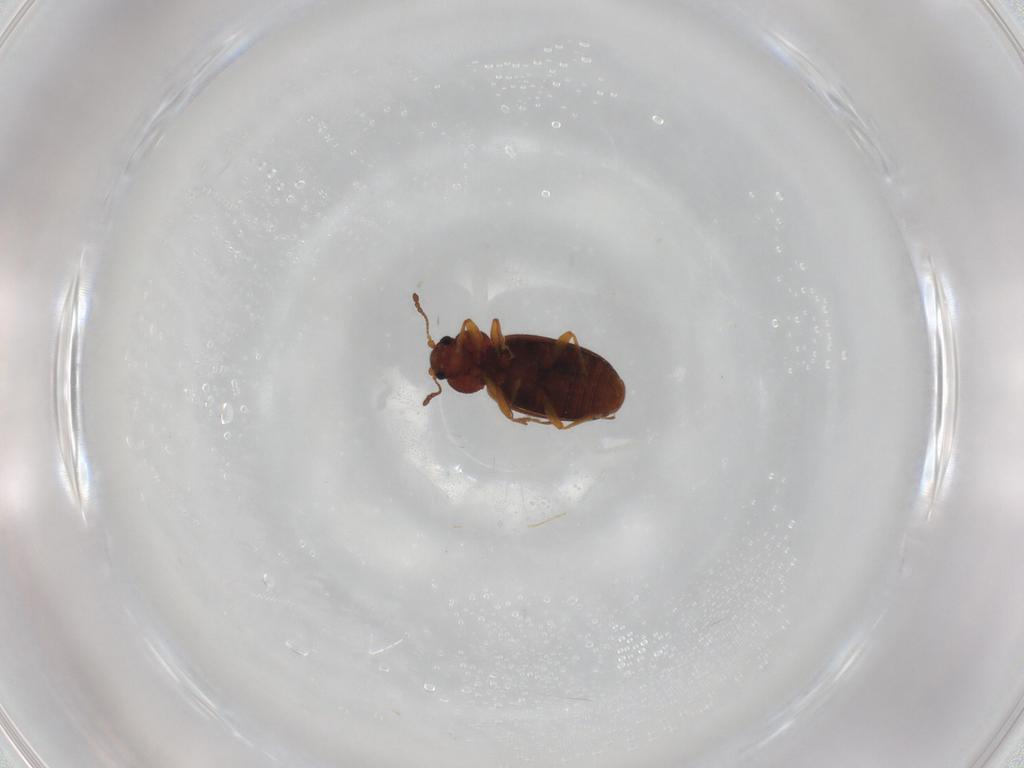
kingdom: Animalia
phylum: Arthropoda
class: Insecta
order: Coleoptera
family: Latridiidae
